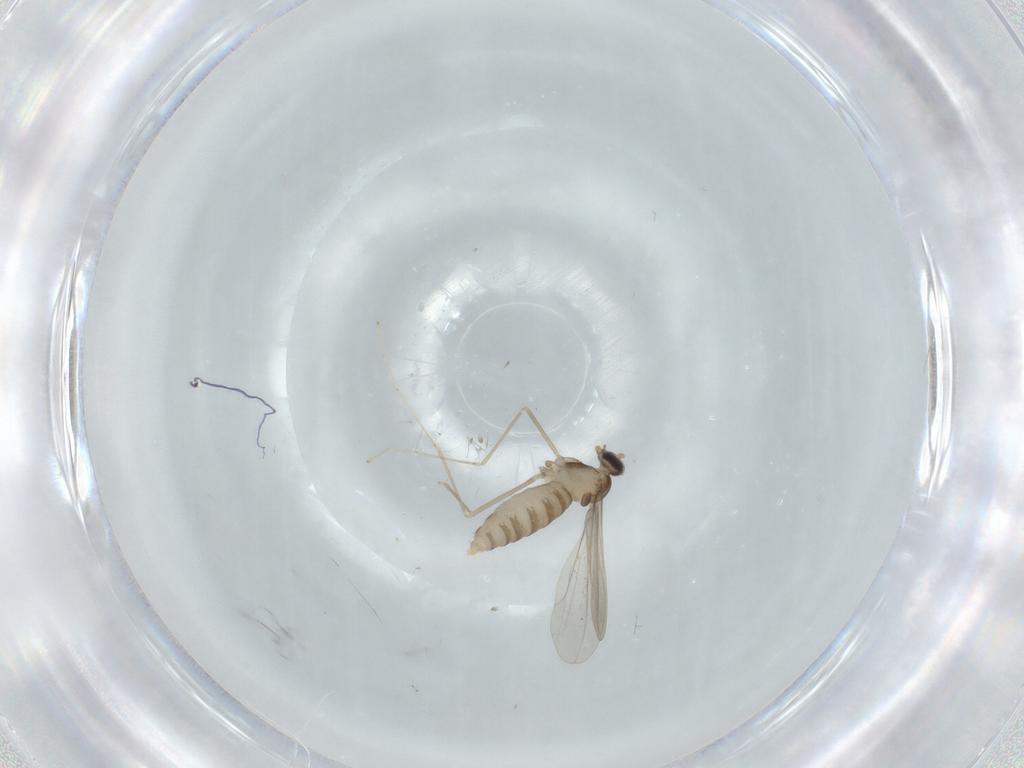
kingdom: Animalia
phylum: Arthropoda
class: Insecta
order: Diptera
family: Cecidomyiidae
